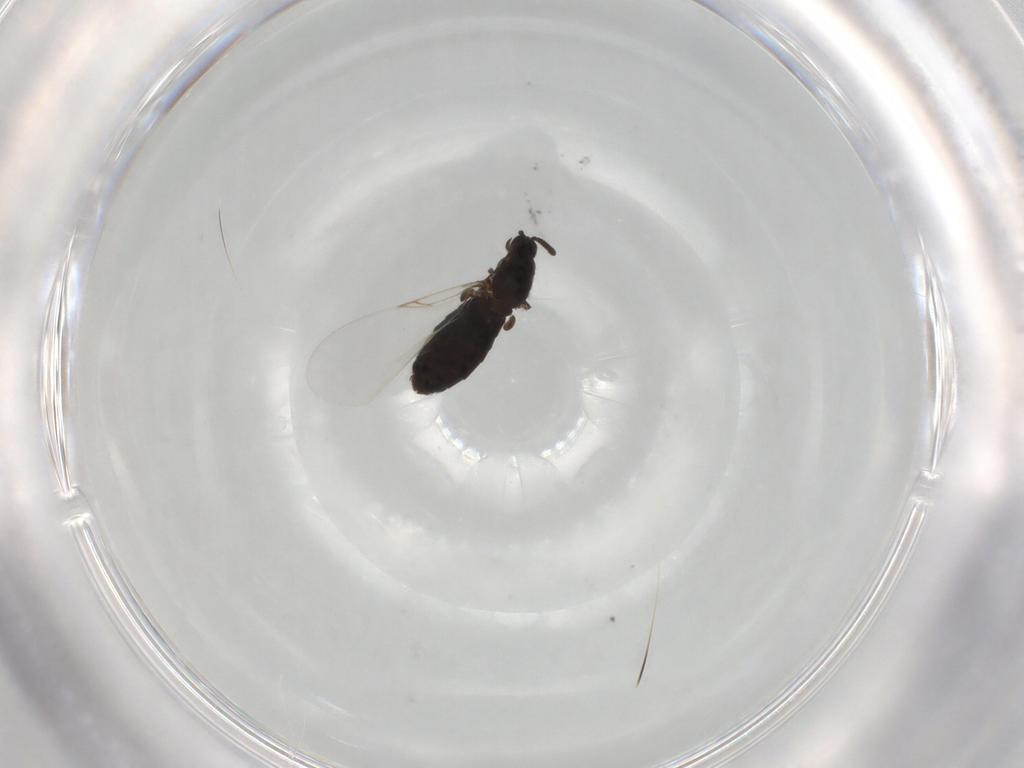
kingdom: Animalia
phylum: Arthropoda
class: Insecta
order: Diptera
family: Scatopsidae
